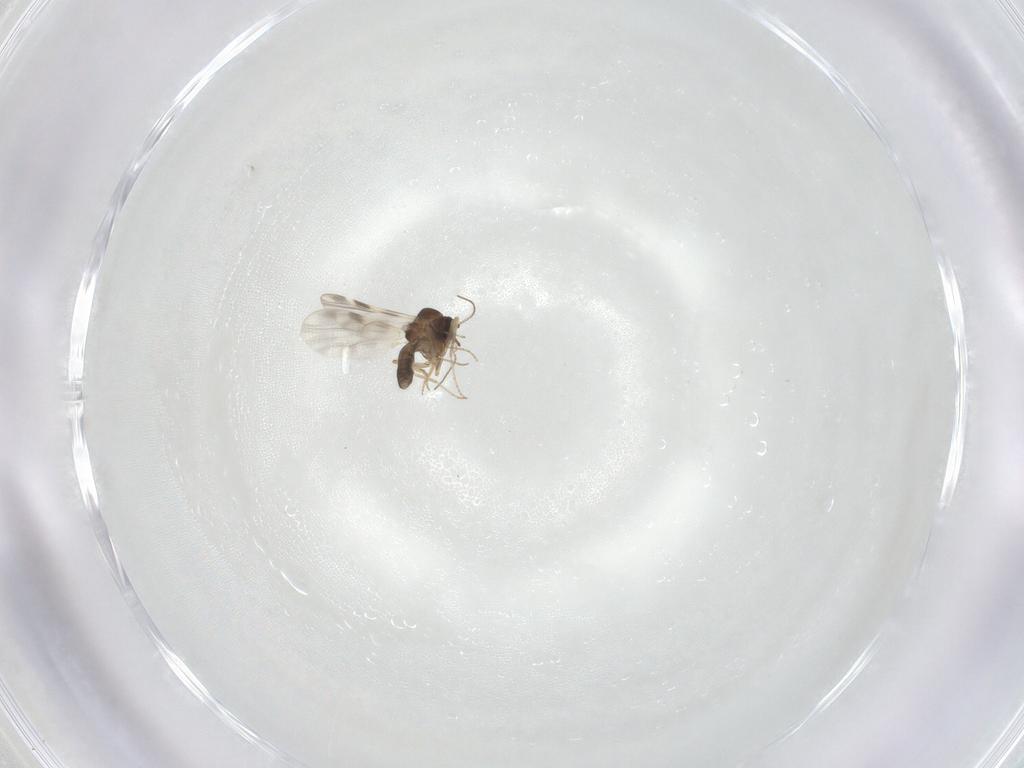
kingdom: Animalia
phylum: Arthropoda
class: Insecta
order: Diptera
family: Ceratopogonidae
